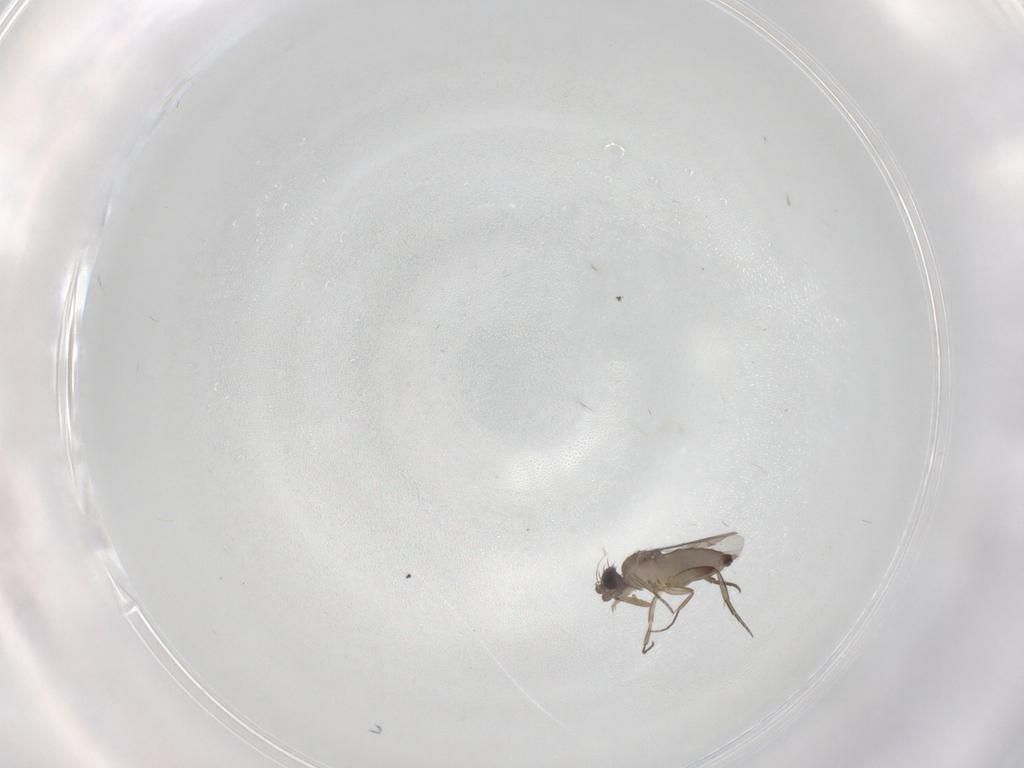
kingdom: Animalia
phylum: Arthropoda
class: Insecta
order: Diptera
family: Phoridae
